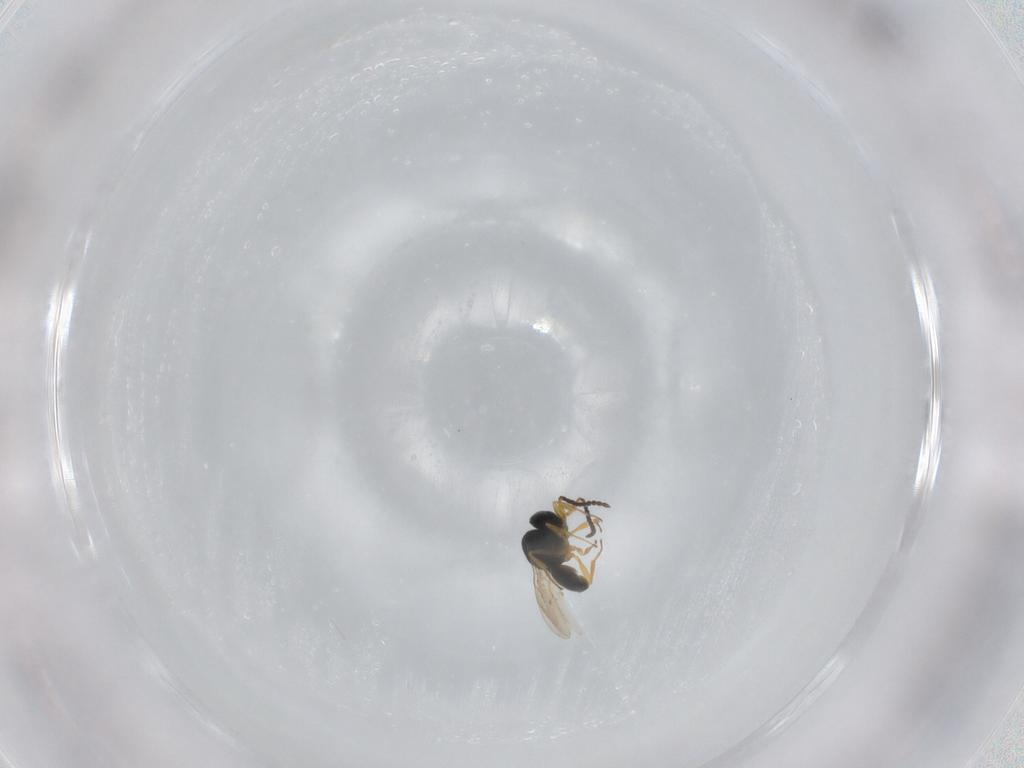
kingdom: Animalia
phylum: Arthropoda
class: Insecta
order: Hymenoptera
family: Scelionidae
